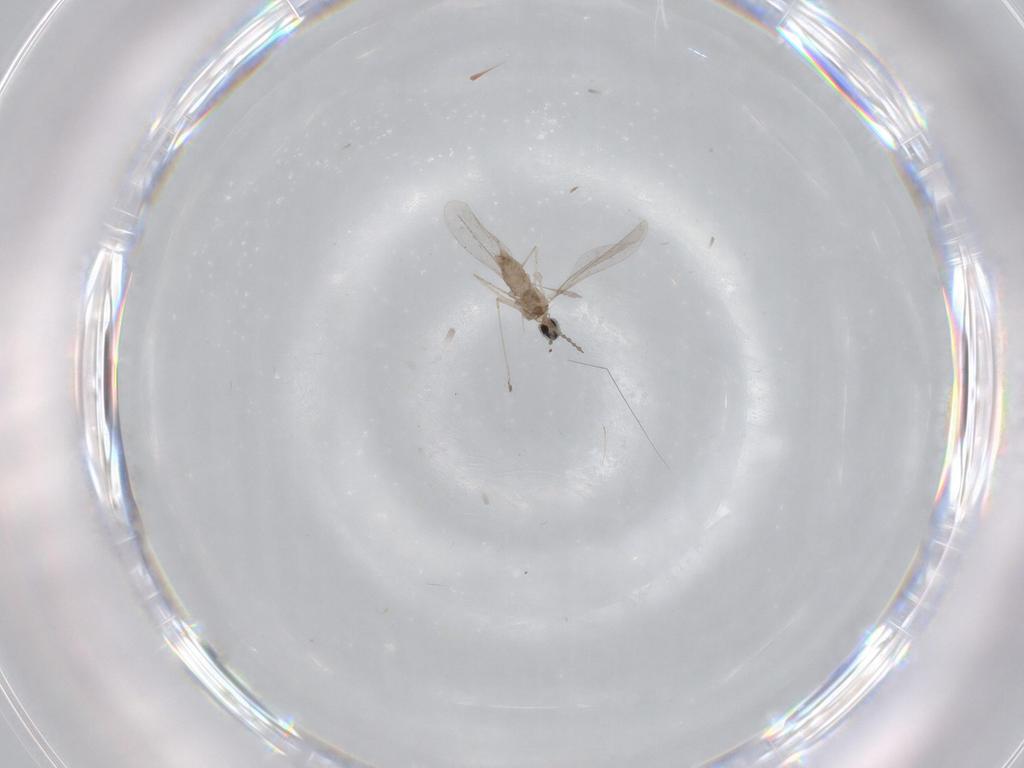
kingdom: Animalia
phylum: Arthropoda
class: Insecta
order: Diptera
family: Cecidomyiidae
